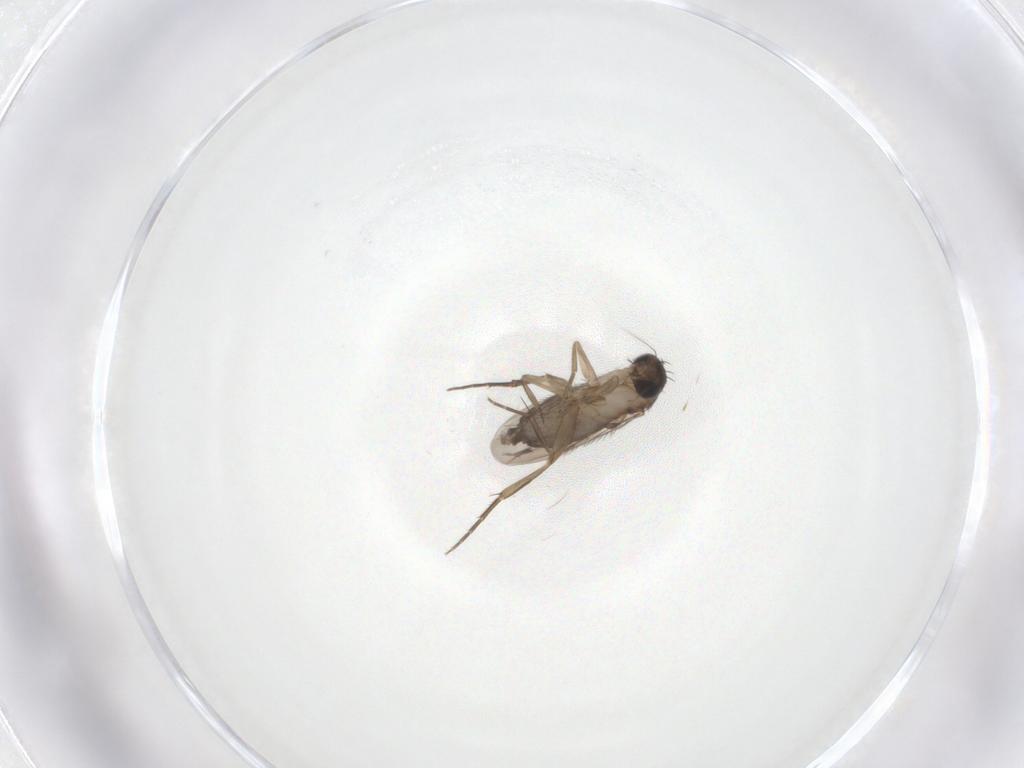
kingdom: Animalia
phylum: Arthropoda
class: Insecta
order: Diptera
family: Phoridae
